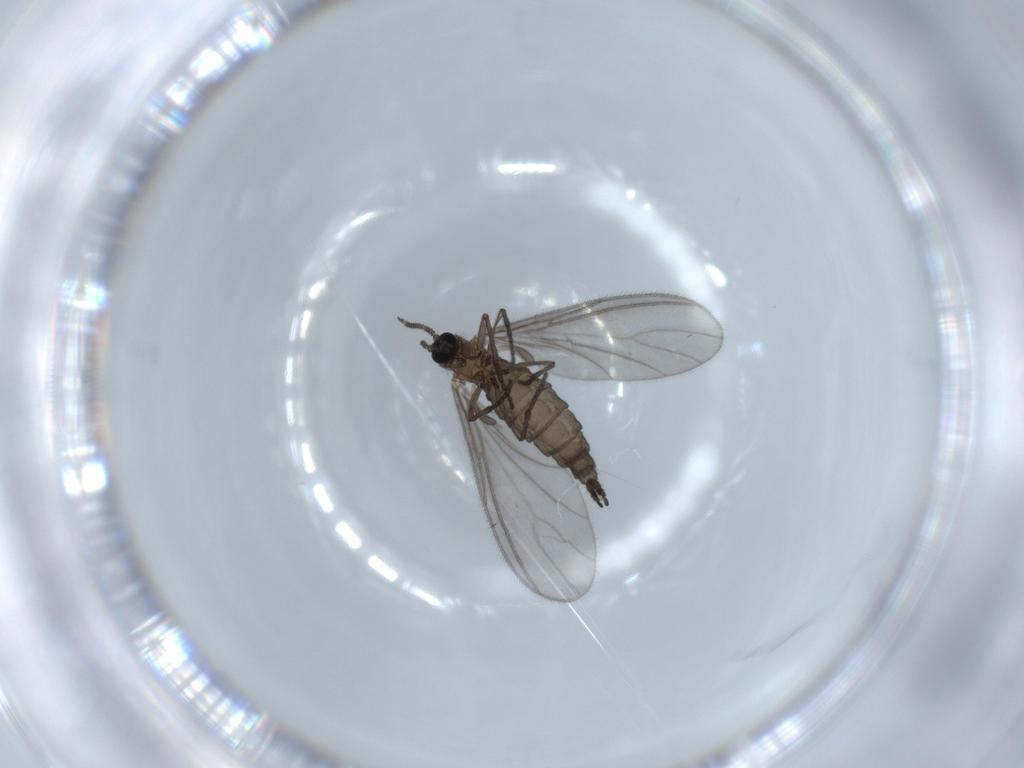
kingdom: Animalia
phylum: Arthropoda
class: Insecta
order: Diptera
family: Sciaridae
